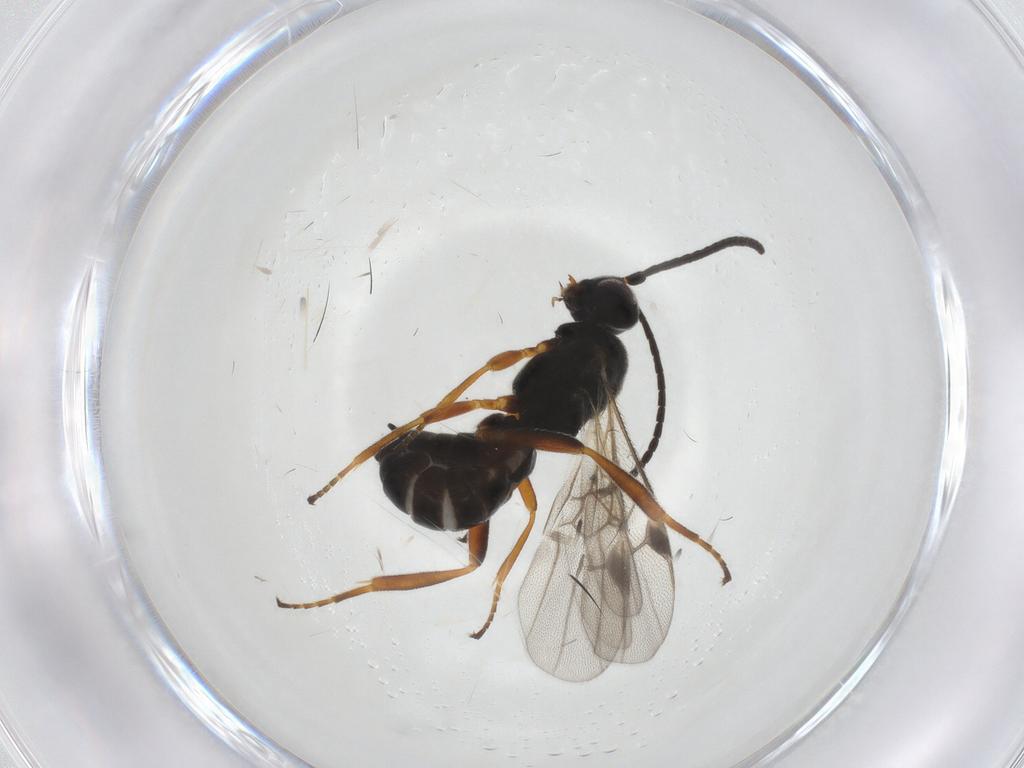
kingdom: Animalia
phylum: Arthropoda
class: Insecta
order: Hymenoptera
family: Braconidae
